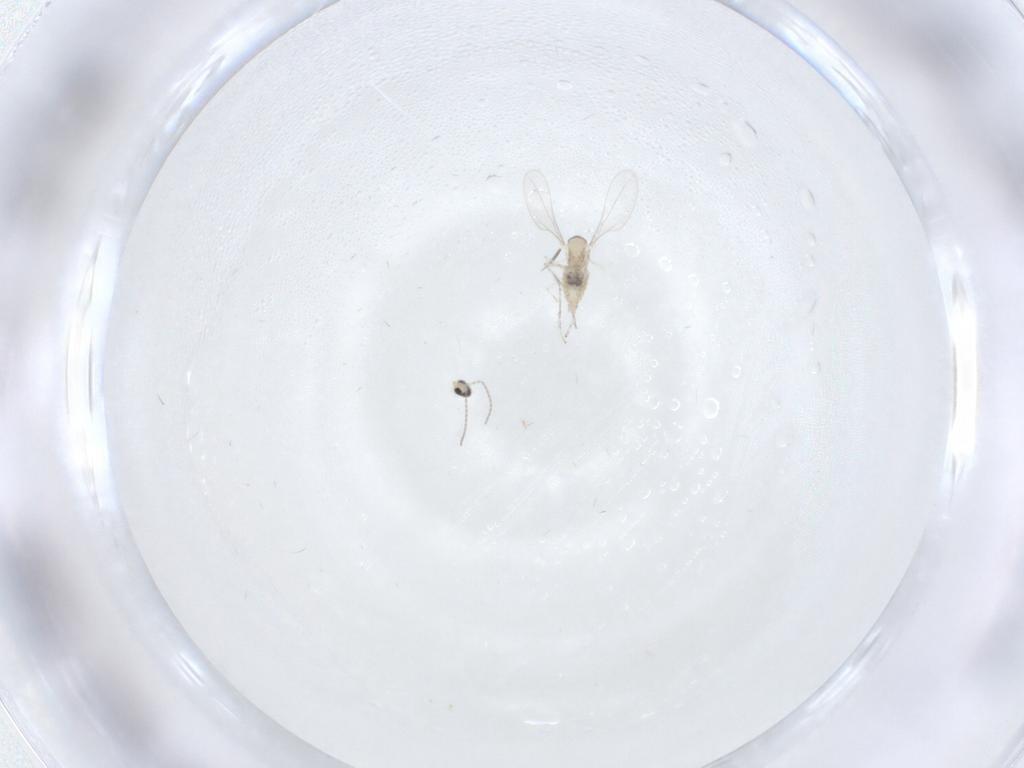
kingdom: Animalia
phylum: Arthropoda
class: Insecta
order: Diptera
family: Cecidomyiidae
